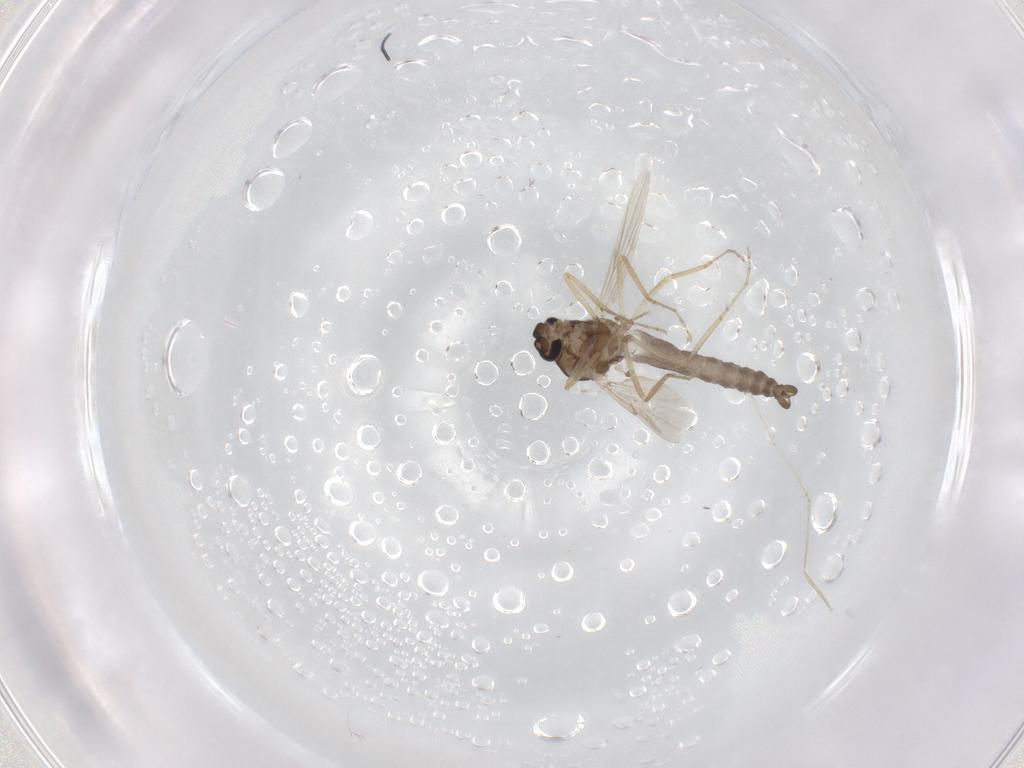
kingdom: Animalia
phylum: Arthropoda
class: Insecta
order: Diptera
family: Ceratopogonidae
